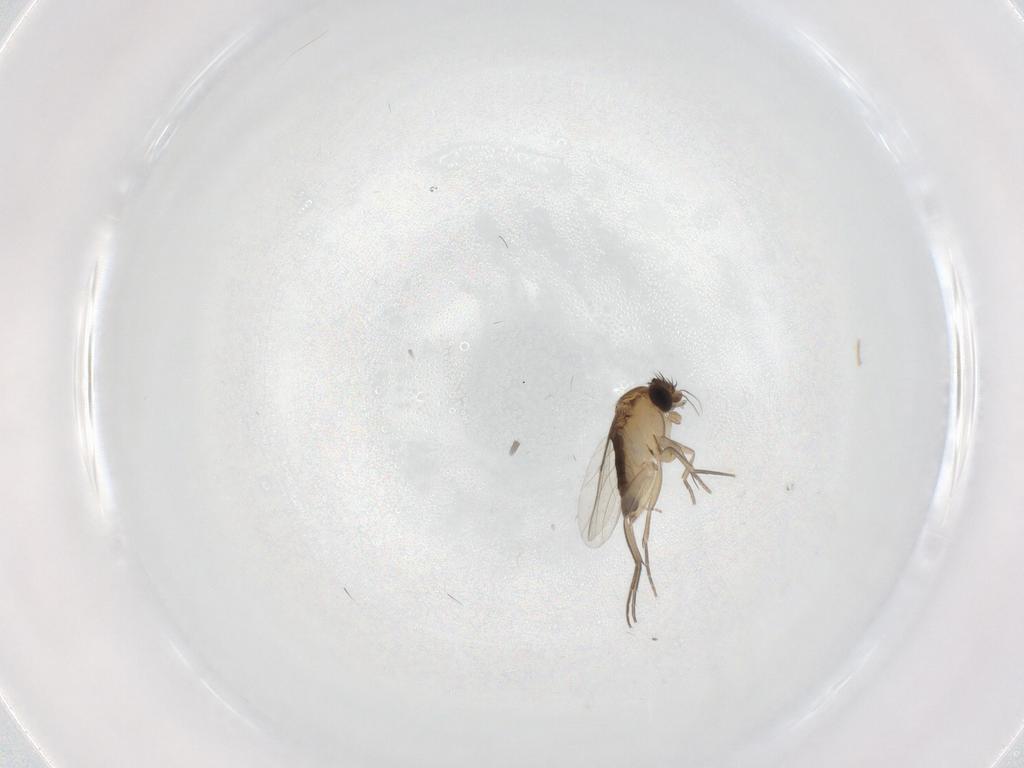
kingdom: Animalia
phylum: Arthropoda
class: Insecta
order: Diptera
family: Phoridae
